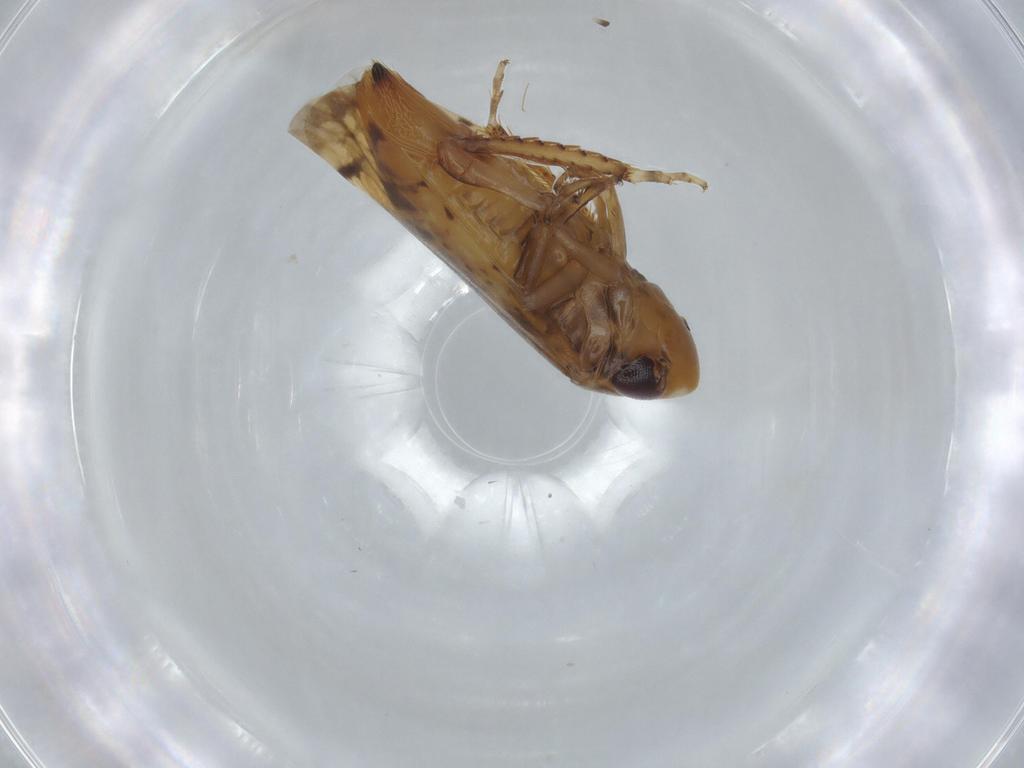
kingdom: Animalia
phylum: Arthropoda
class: Insecta
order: Hemiptera
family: Cicadellidae
